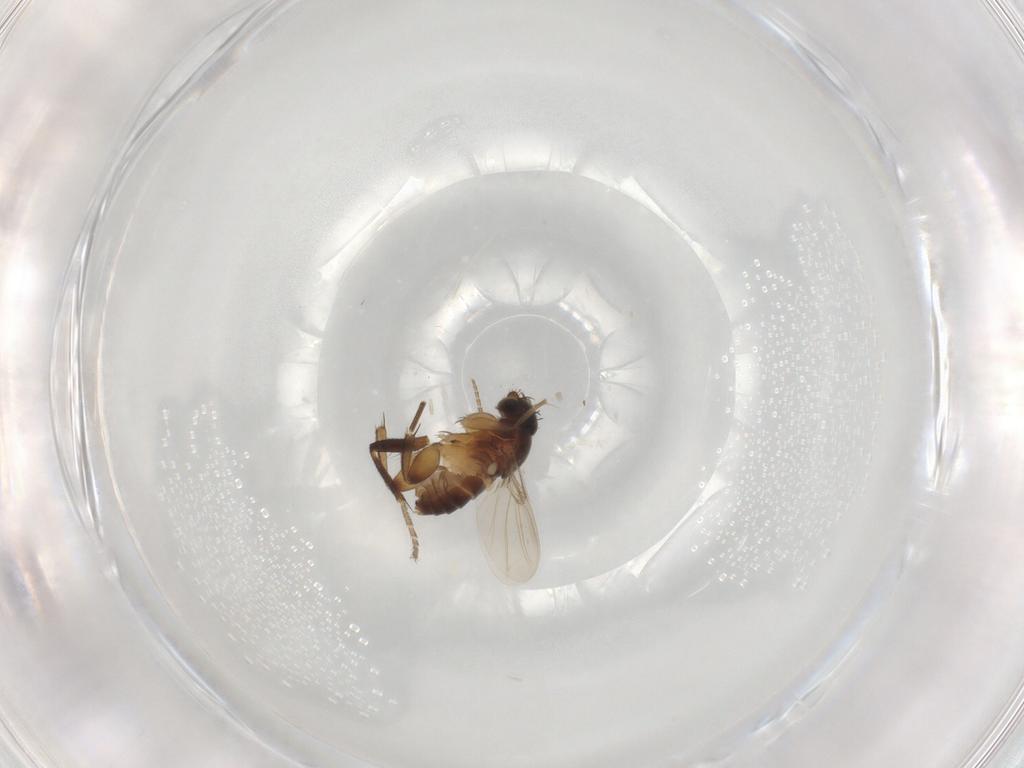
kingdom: Animalia
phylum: Arthropoda
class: Insecta
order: Diptera
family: Phoridae
